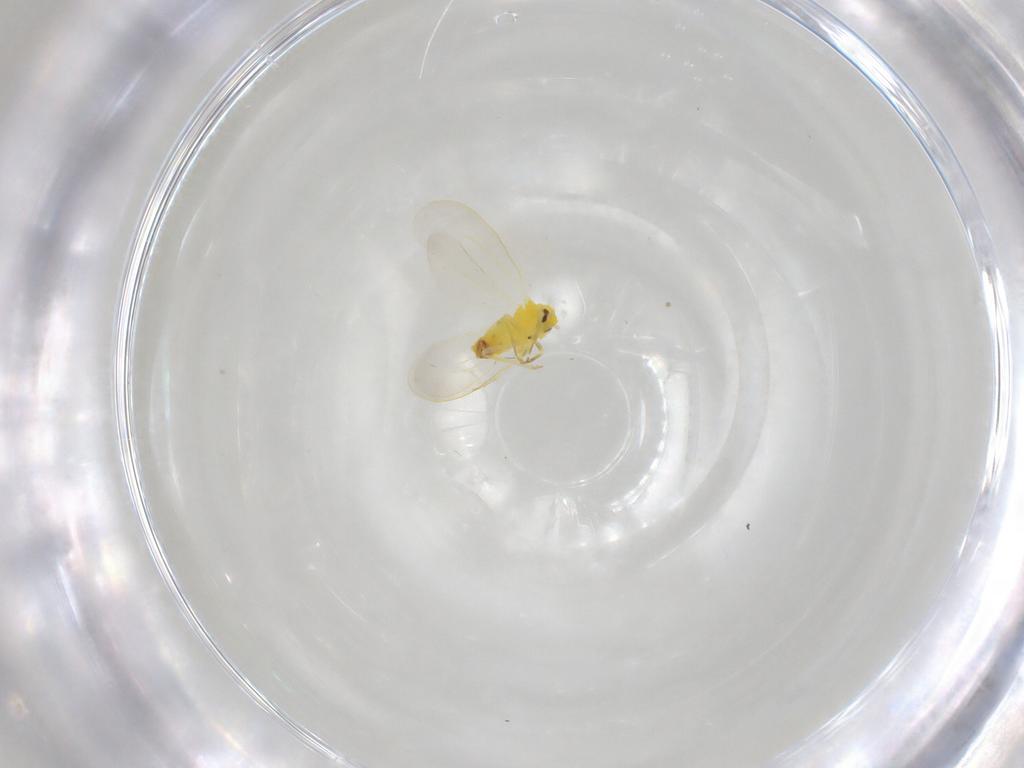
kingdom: Animalia
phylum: Arthropoda
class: Insecta
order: Hemiptera
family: Aleyrodidae
